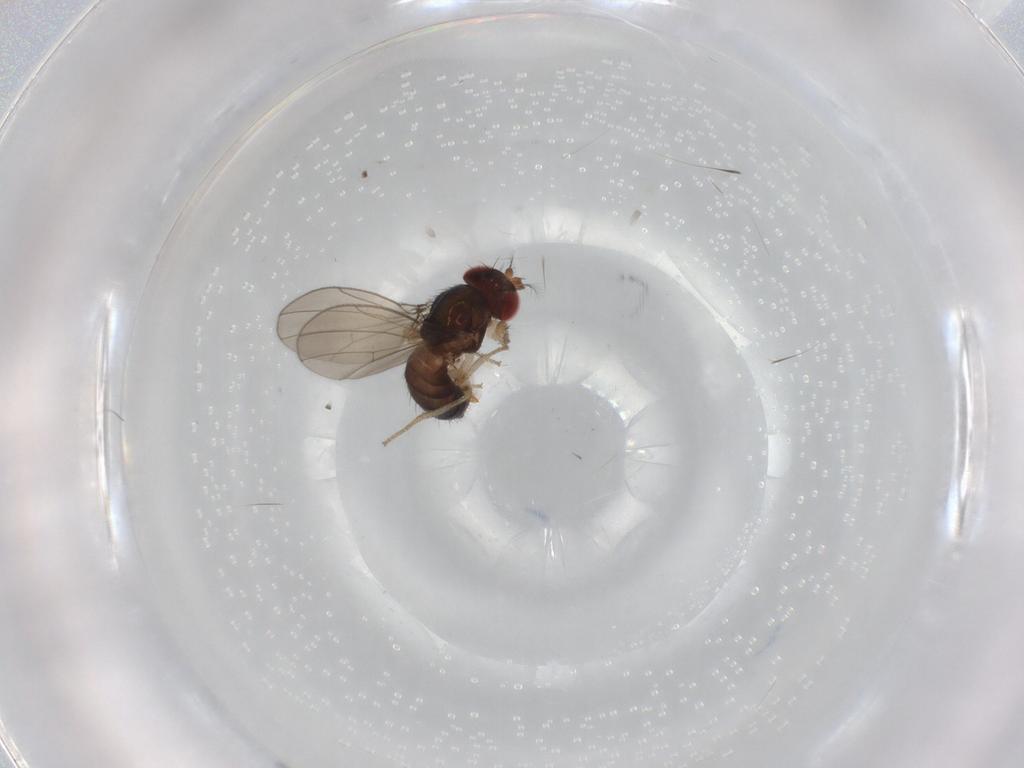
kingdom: Animalia
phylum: Arthropoda
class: Insecta
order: Diptera
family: Drosophilidae
